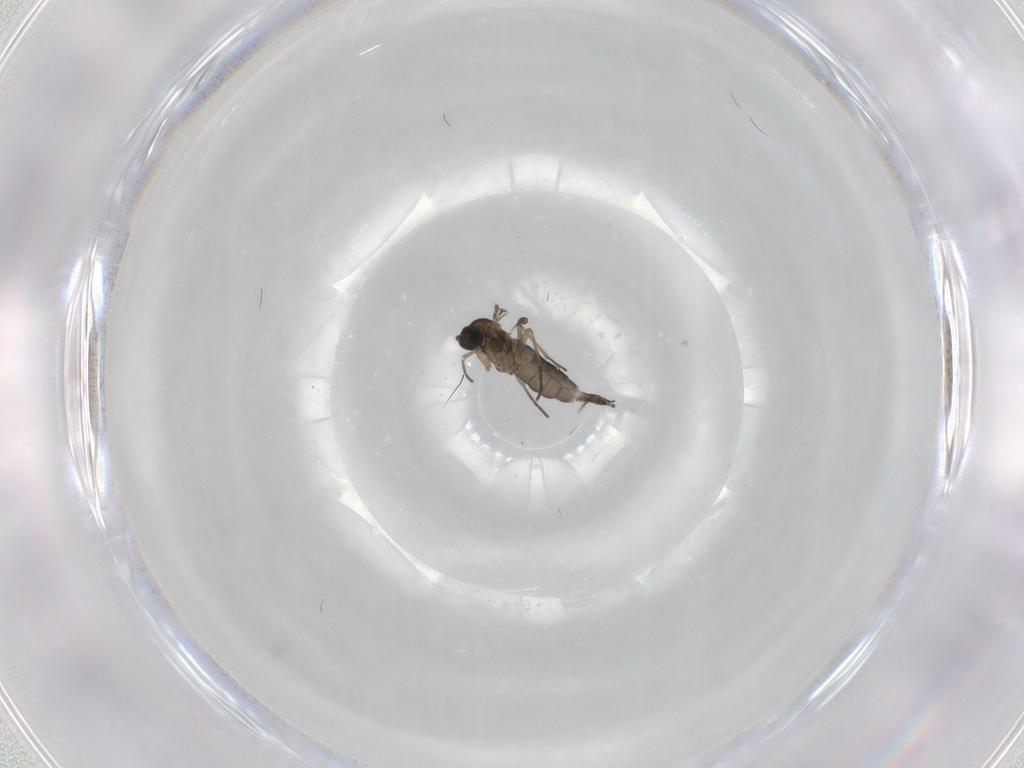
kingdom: Animalia
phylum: Arthropoda
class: Insecta
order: Diptera
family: Sciaridae
